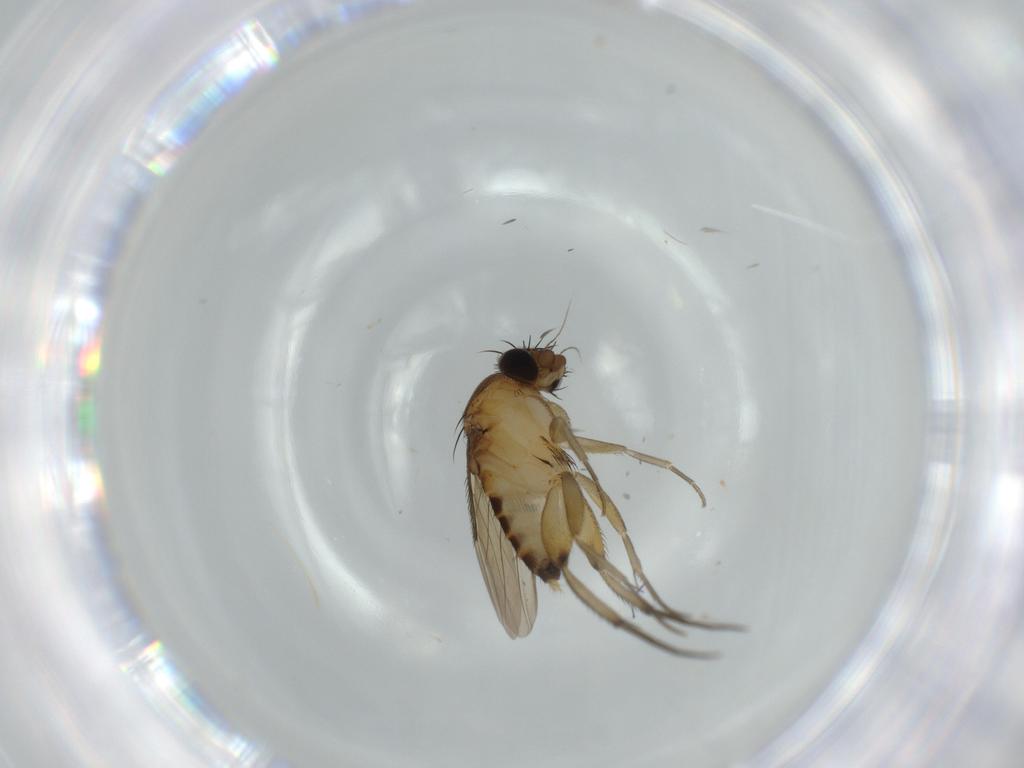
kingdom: Animalia
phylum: Arthropoda
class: Insecta
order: Diptera
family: Phoridae
